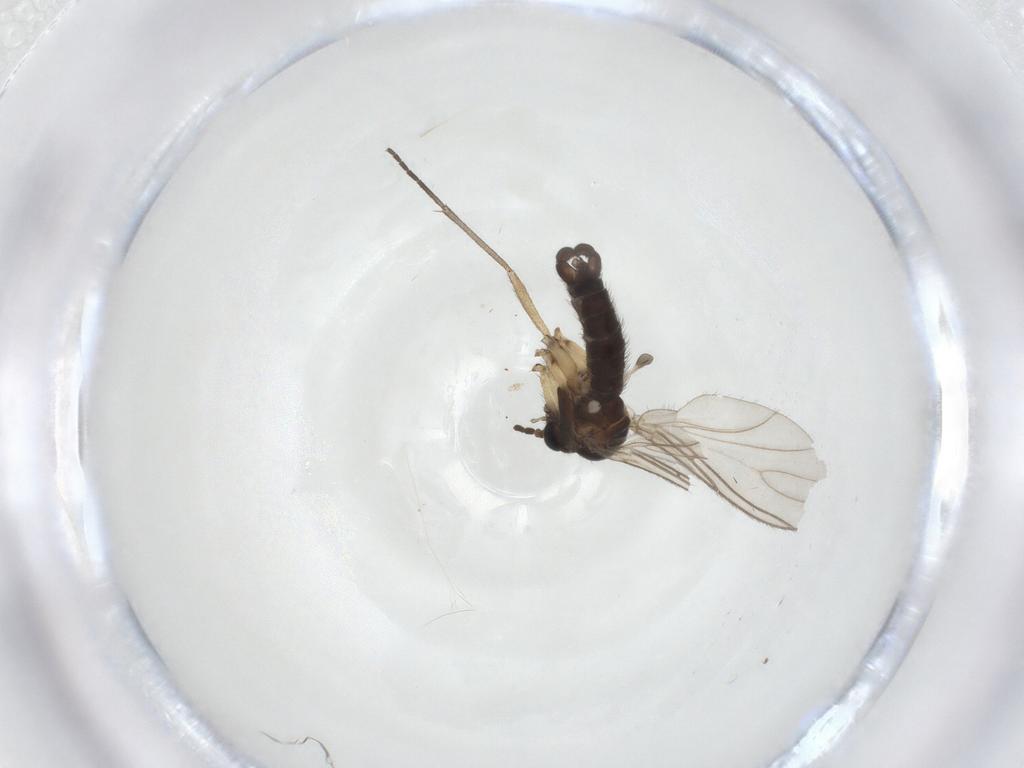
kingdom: Animalia
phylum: Arthropoda
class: Insecta
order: Diptera
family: Sciaridae
